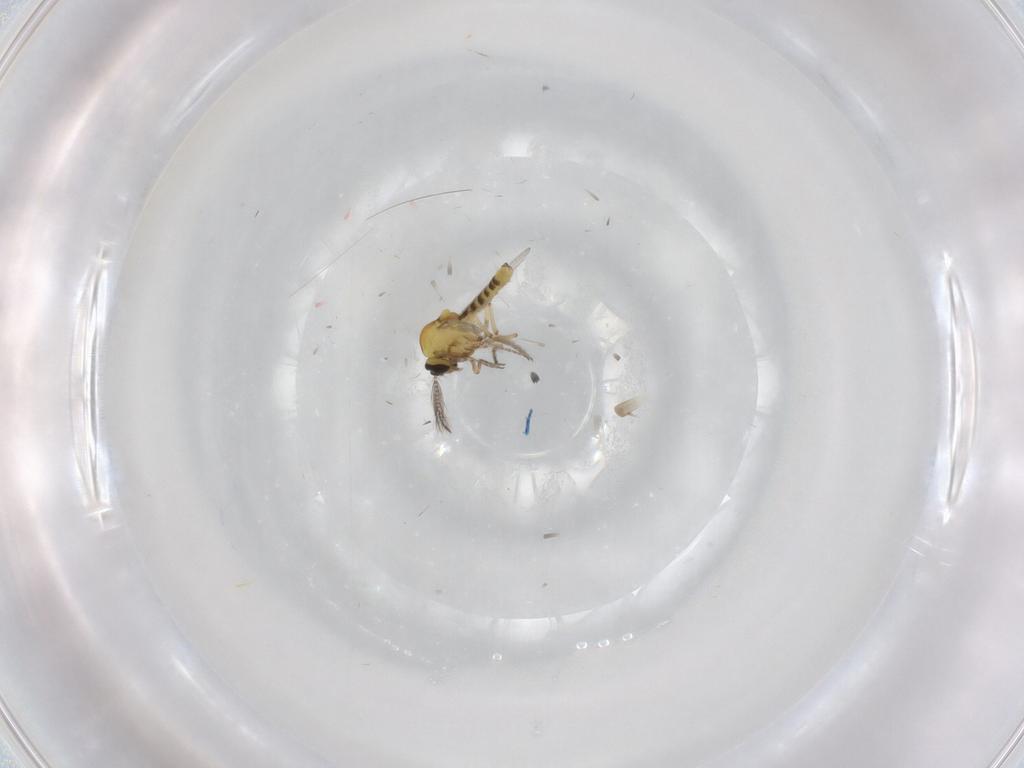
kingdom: Animalia
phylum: Arthropoda
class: Insecta
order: Diptera
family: Ceratopogonidae
